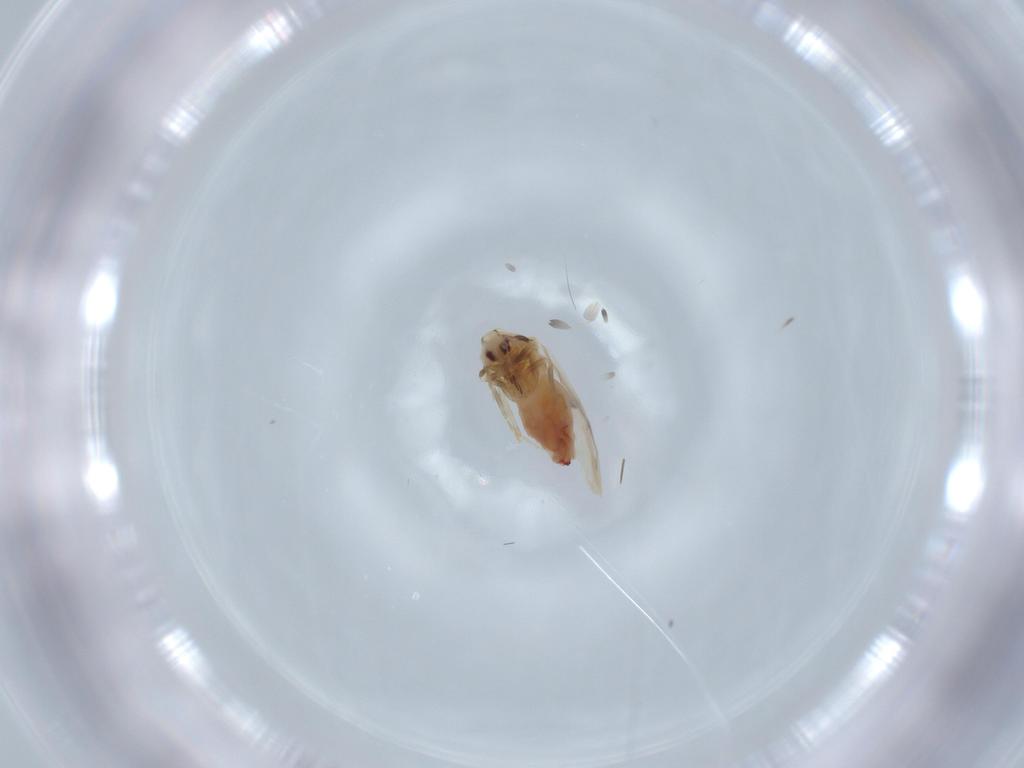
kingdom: Animalia
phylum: Arthropoda
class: Insecta
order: Hemiptera
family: Aleyrodidae
